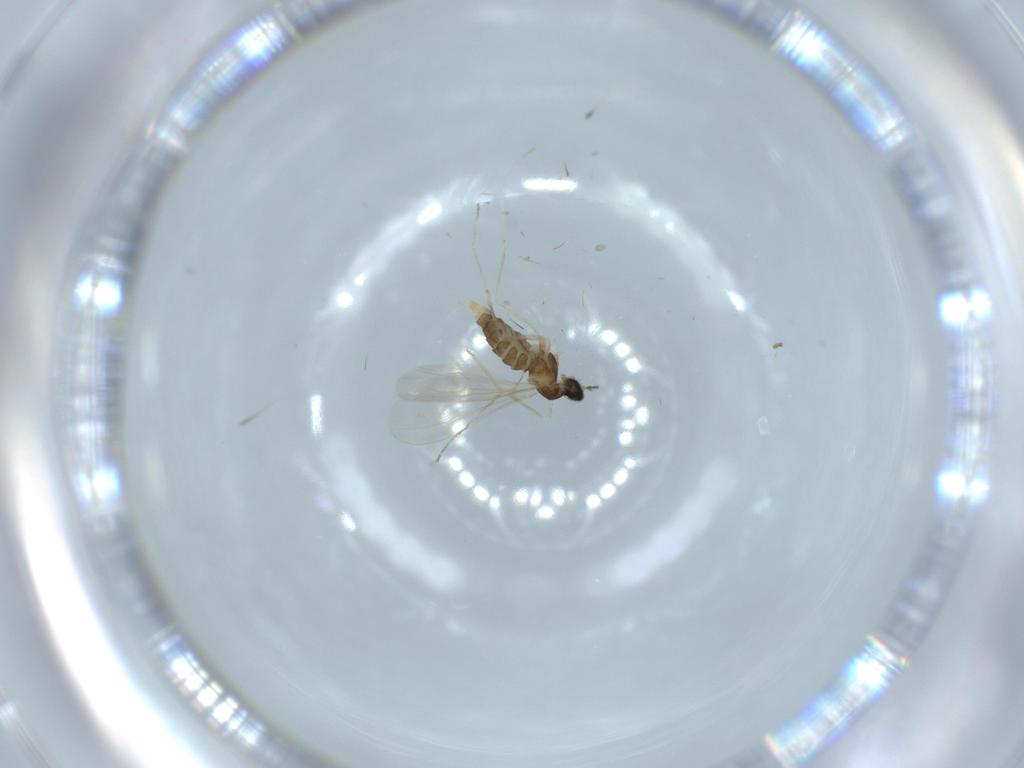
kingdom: Animalia
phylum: Arthropoda
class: Insecta
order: Diptera
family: Cecidomyiidae
